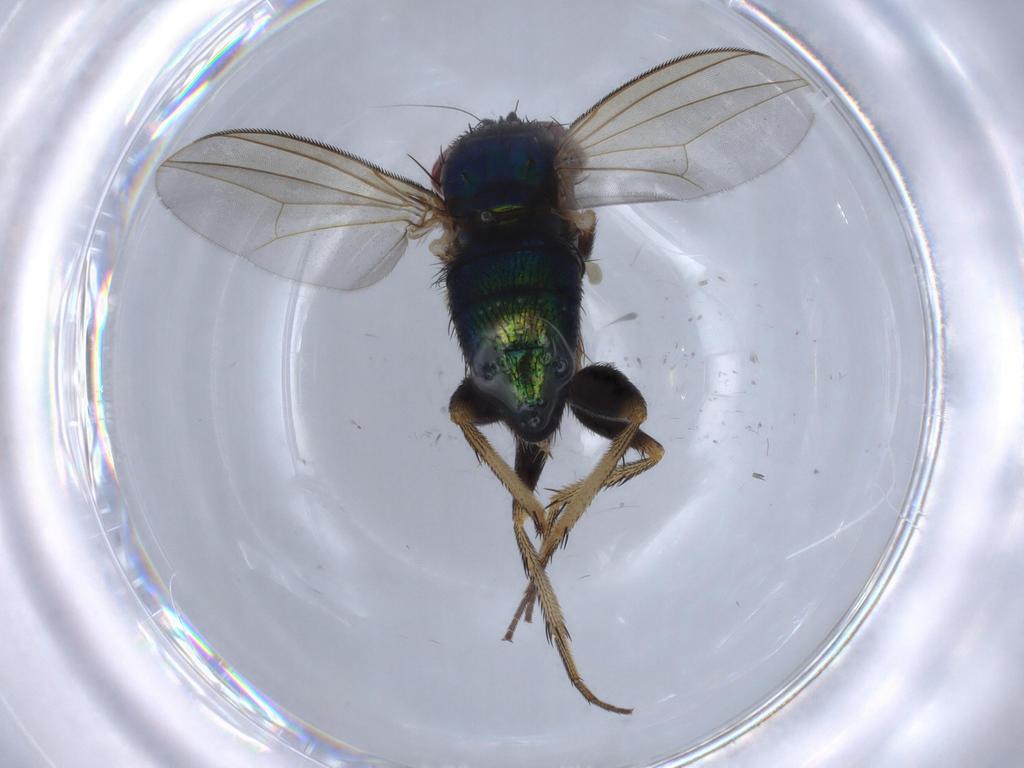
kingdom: Animalia
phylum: Arthropoda
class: Insecta
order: Diptera
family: Dolichopodidae
